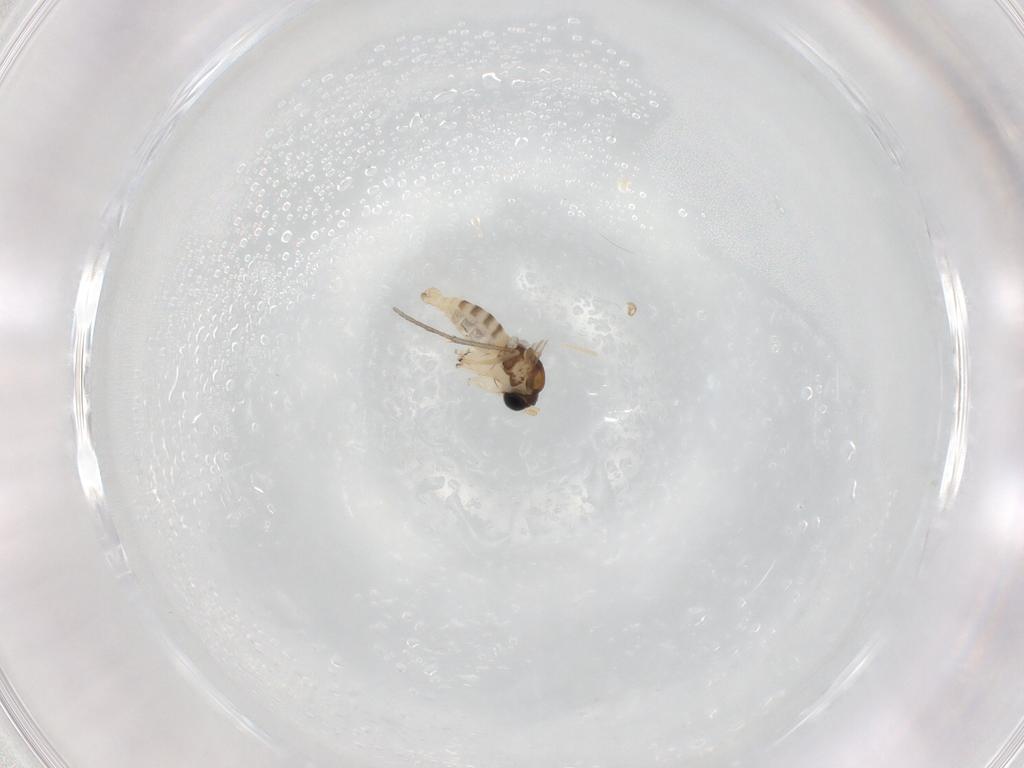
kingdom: Animalia
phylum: Arthropoda
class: Insecta
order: Diptera
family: Sciaridae
